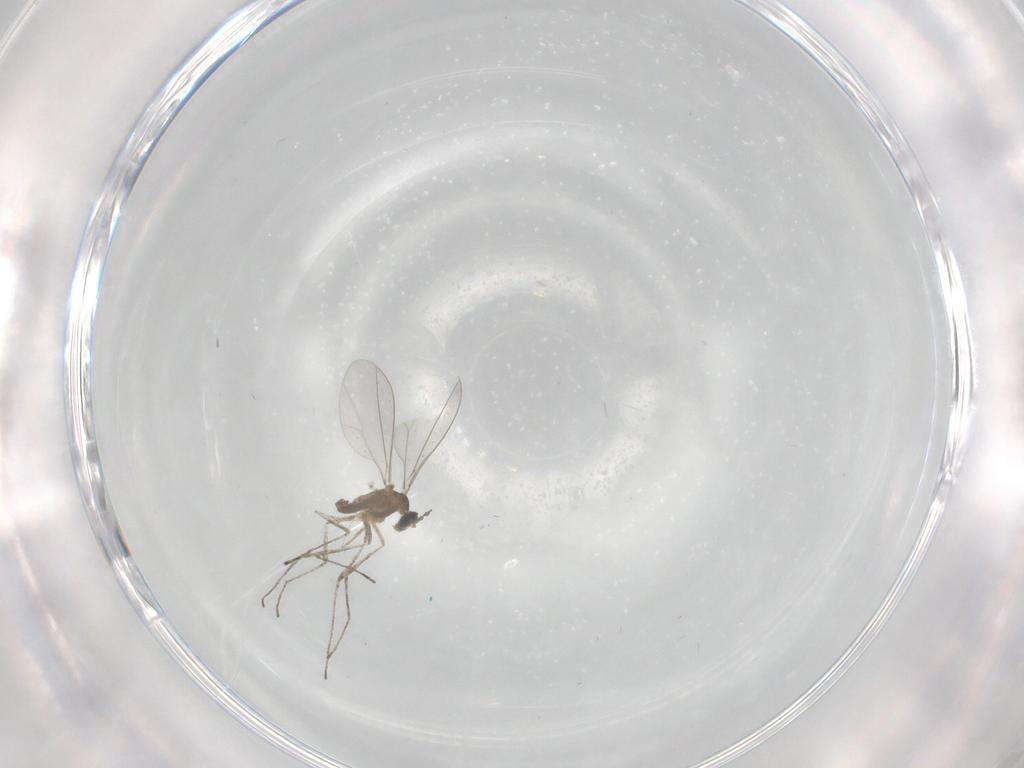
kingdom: Animalia
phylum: Arthropoda
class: Insecta
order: Diptera
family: Cecidomyiidae
